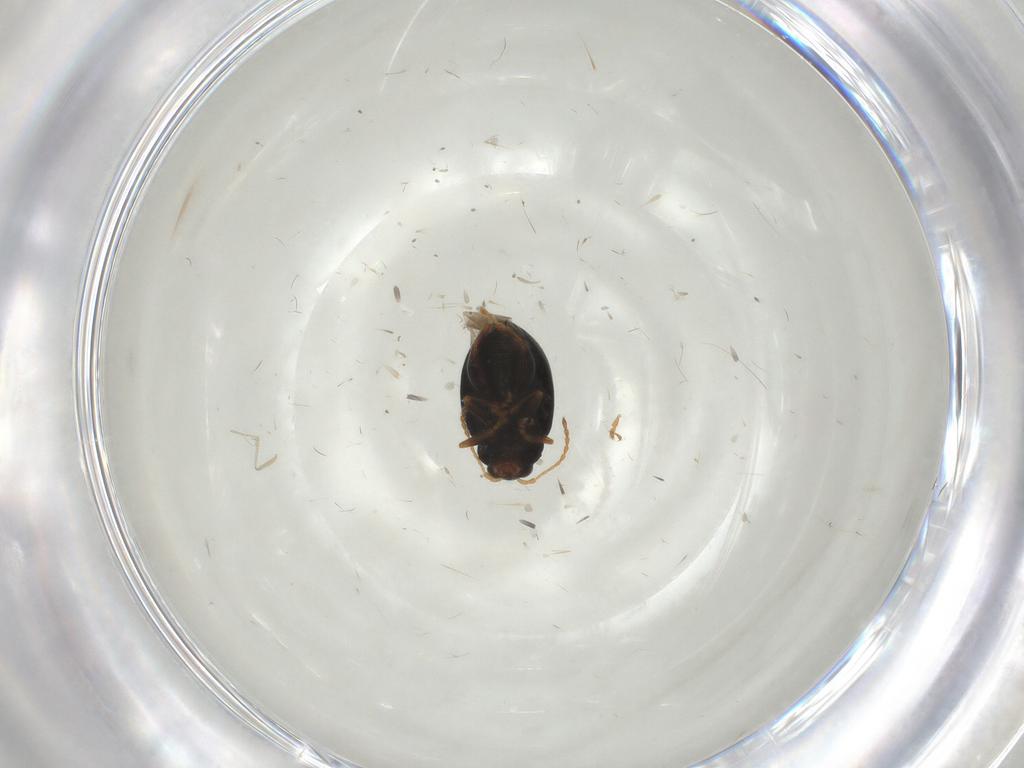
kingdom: Animalia
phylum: Arthropoda
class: Insecta
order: Coleoptera
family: Chrysomelidae
